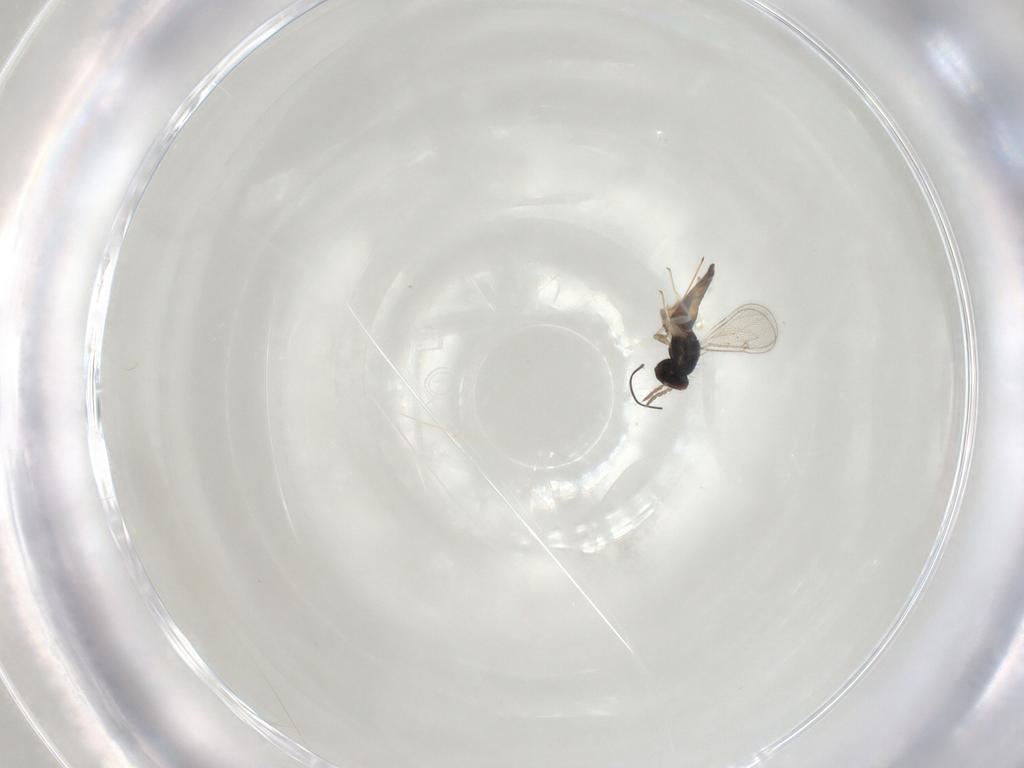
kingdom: Animalia
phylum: Arthropoda
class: Insecta
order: Hymenoptera
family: Eulophidae
